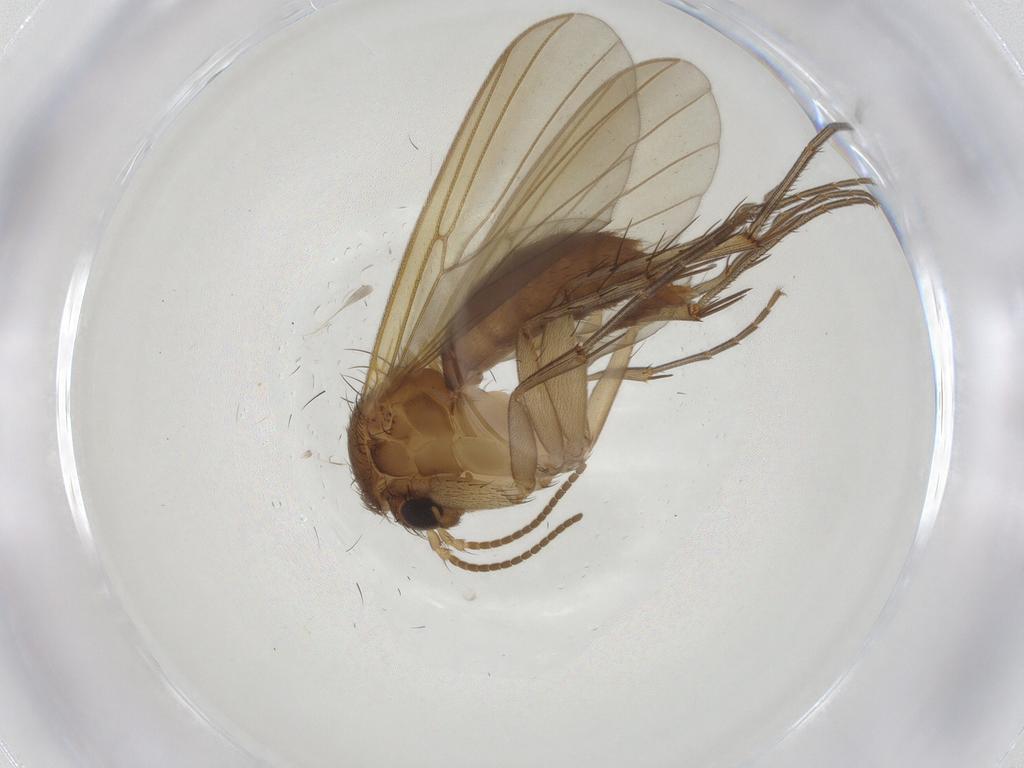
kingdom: Animalia
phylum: Arthropoda
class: Insecta
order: Diptera
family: Mycetophilidae
